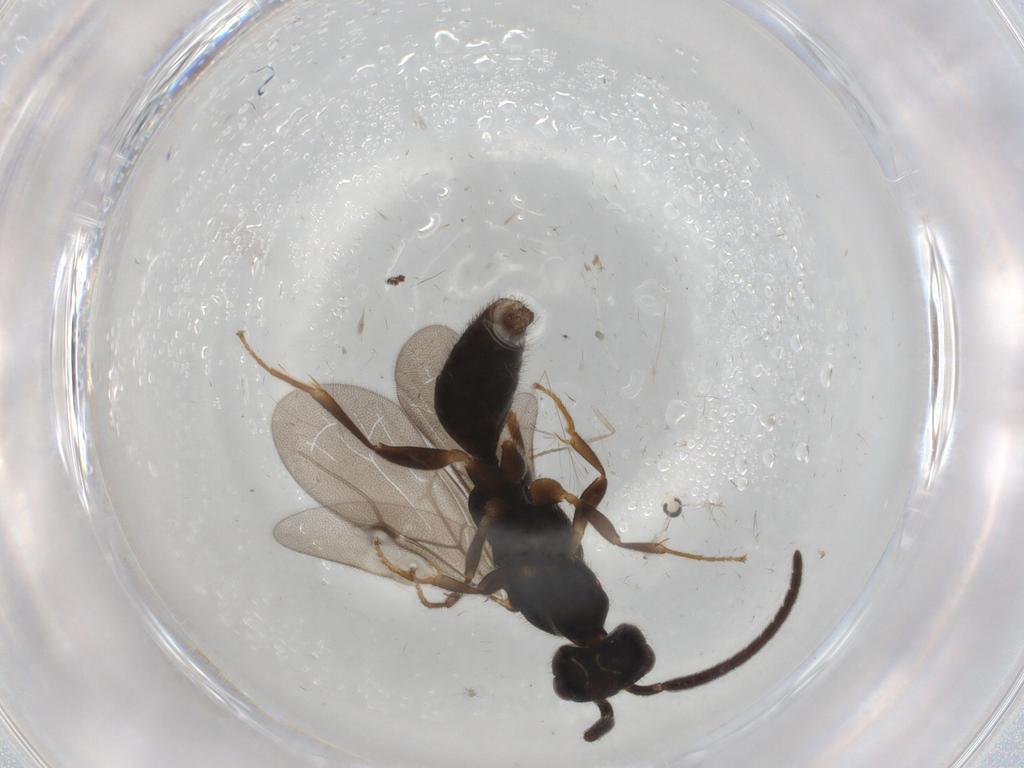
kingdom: Animalia
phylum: Arthropoda
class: Insecta
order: Hymenoptera
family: Bethylidae
